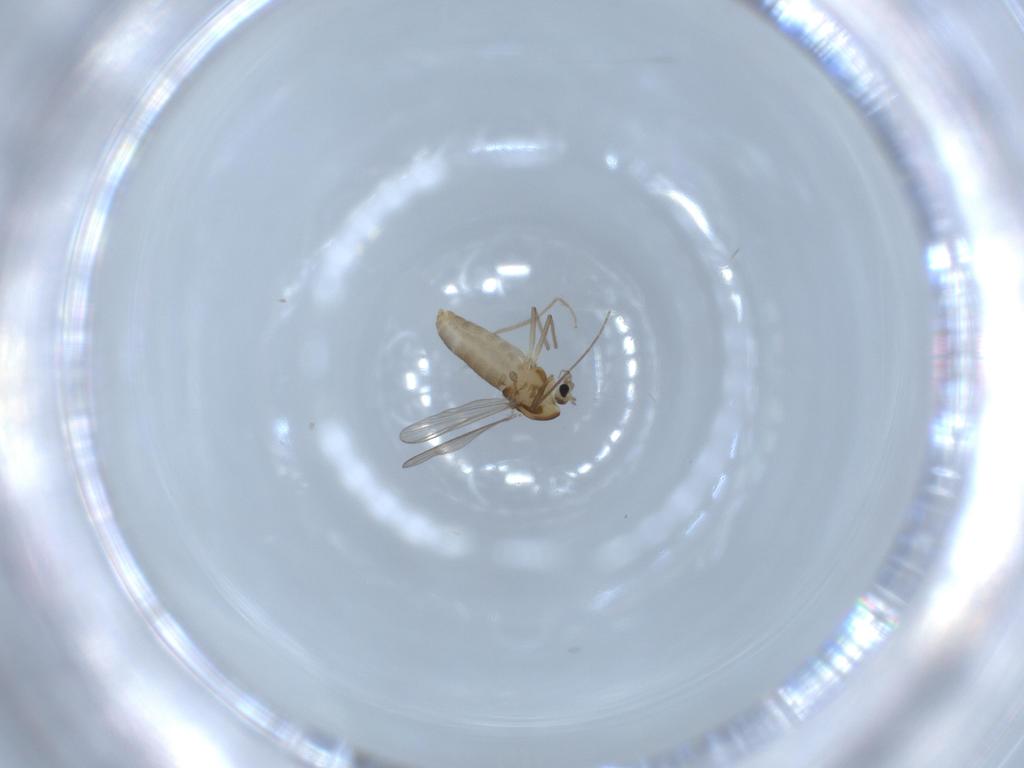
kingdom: Animalia
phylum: Arthropoda
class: Insecta
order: Diptera
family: Sciaridae
